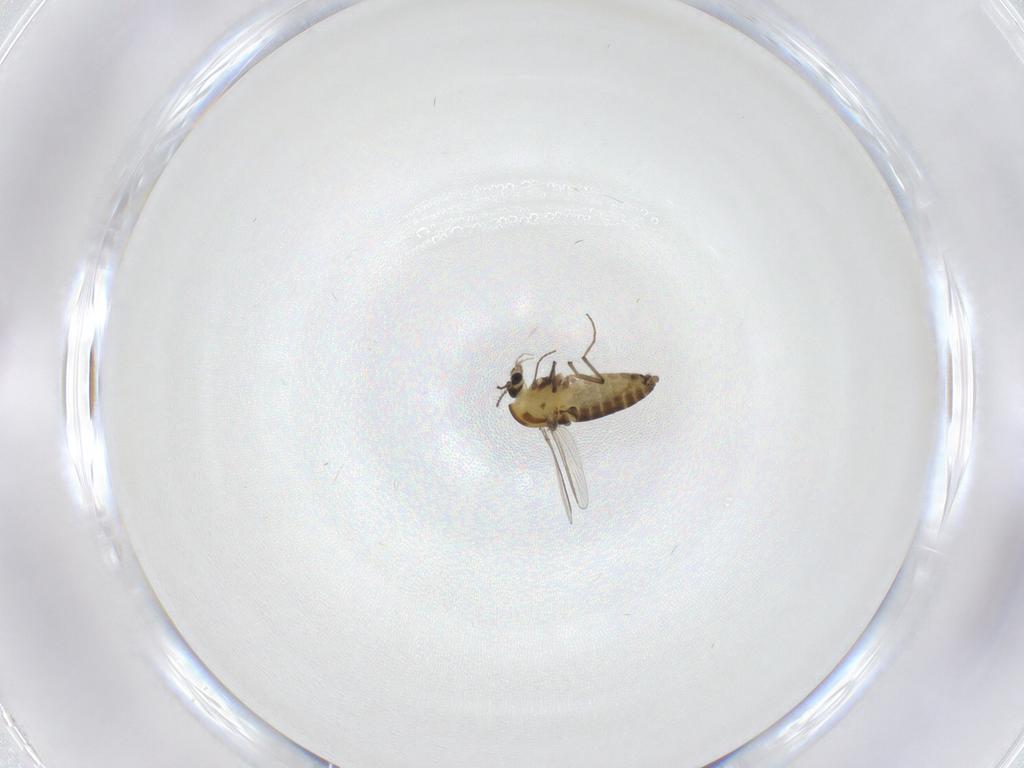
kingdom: Animalia
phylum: Arthropoda
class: Insecta
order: Diptera
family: Chironomidae
